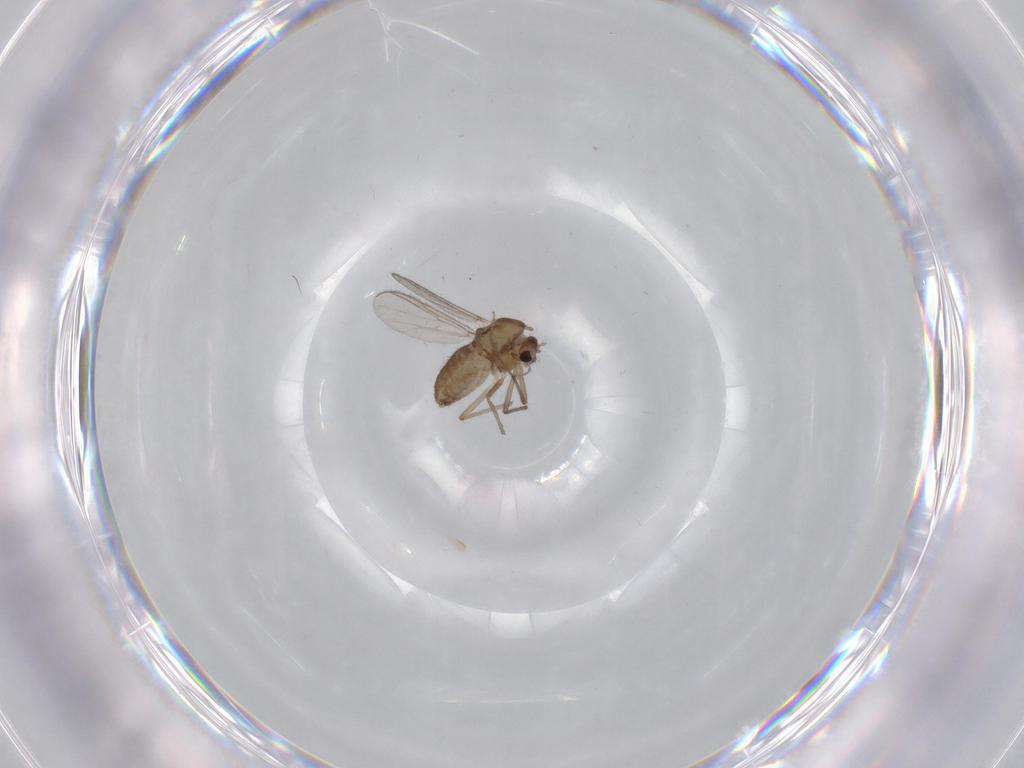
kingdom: Animalia
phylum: Arthropoda
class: Insecta
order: Diptera
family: Chironomidae
